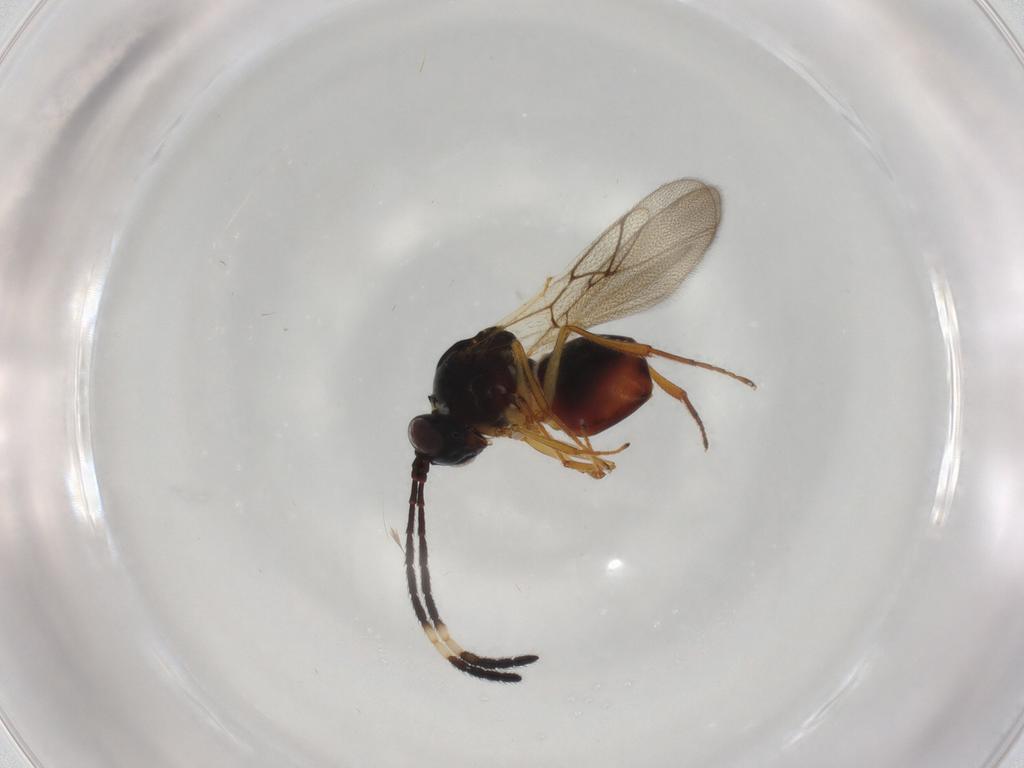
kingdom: Animalia
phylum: Arthropoda
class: Insecta
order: Hymenoptera
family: Figitidae
